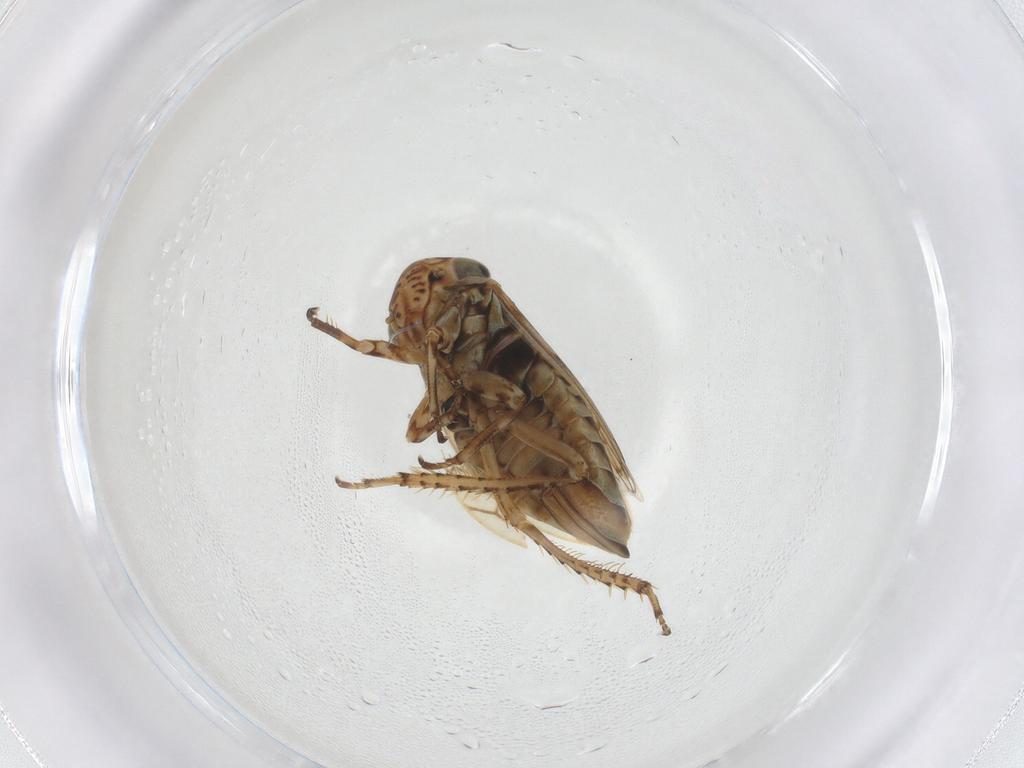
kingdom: Animalia
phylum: Arthropoda
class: Insecta
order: Hemiptera
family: Cicadellidae
